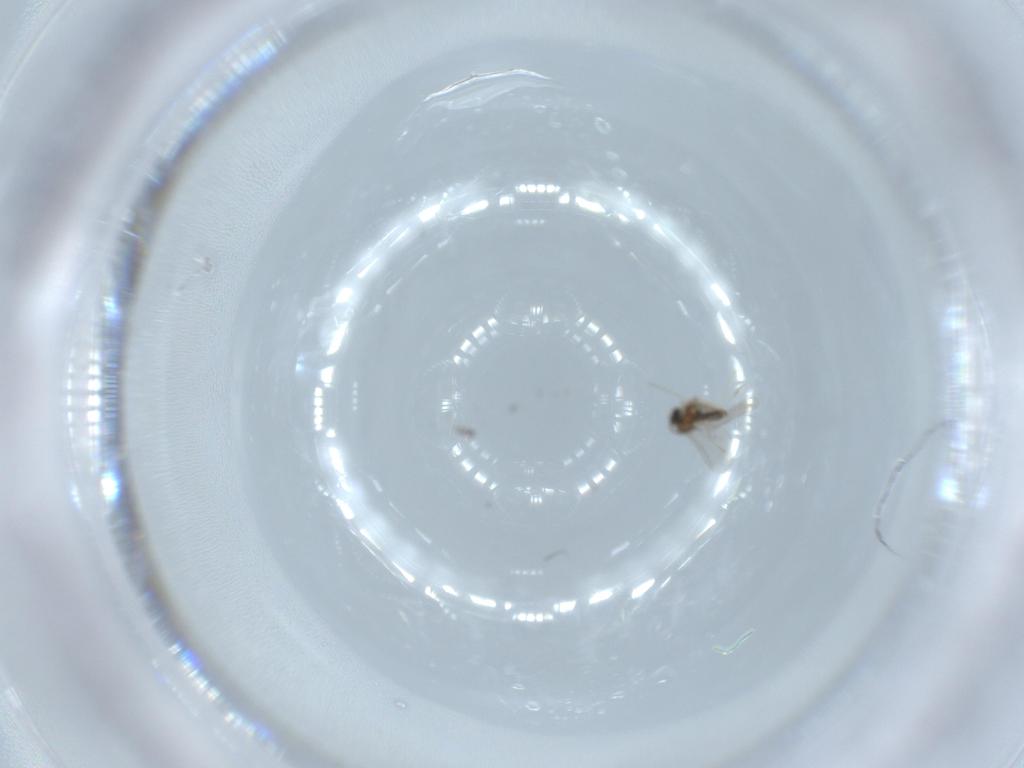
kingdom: Animalia
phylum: Arthropoda
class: Insecta
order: Diptera
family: Cecidomyiidae
